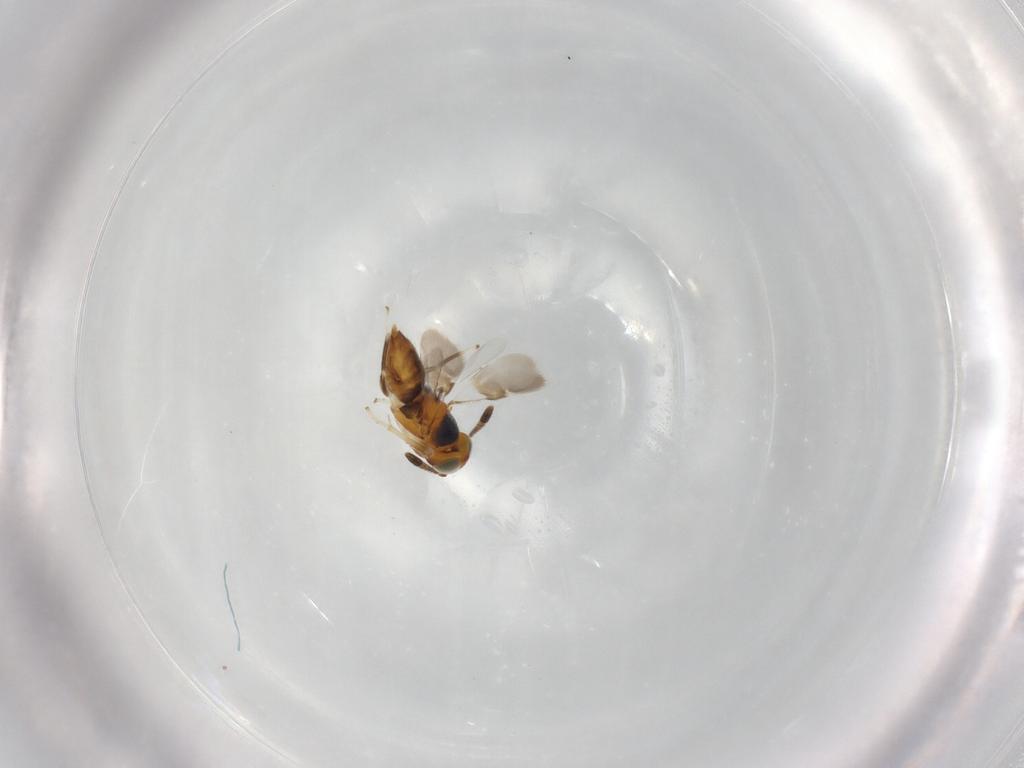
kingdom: Animalia
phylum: Arthropoda
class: Insecta
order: Hymenoptera
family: Encyrtidae
